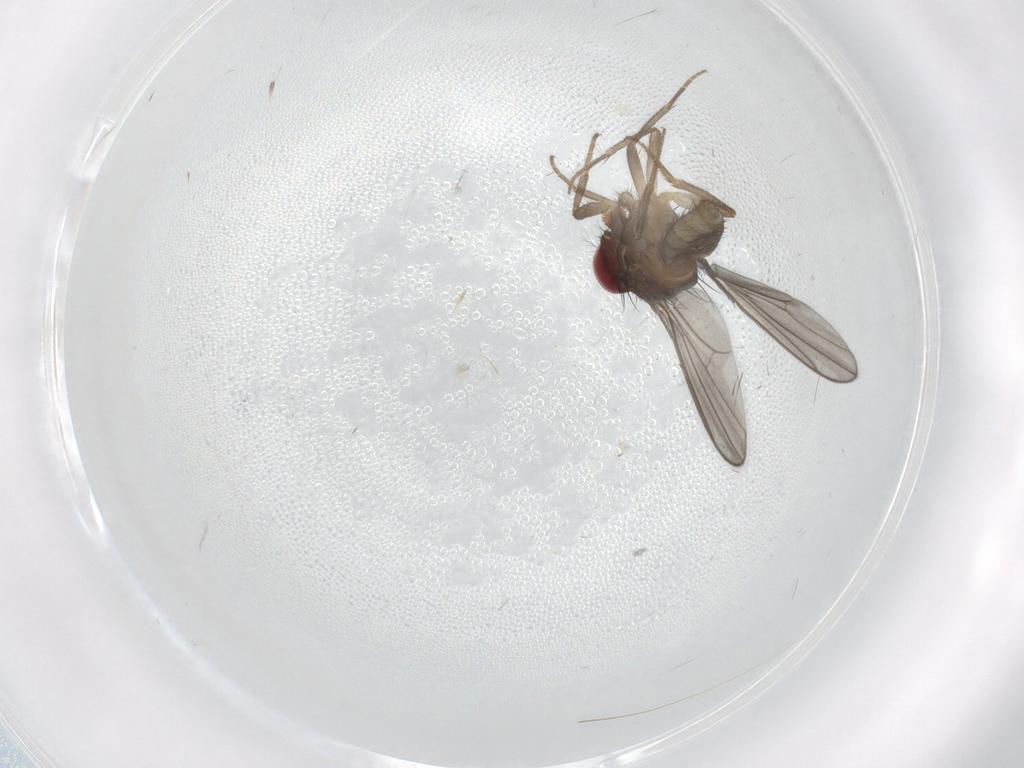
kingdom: Animalia
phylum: Arthropoda
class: Insecta
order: Diptera
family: Drosophilidae
